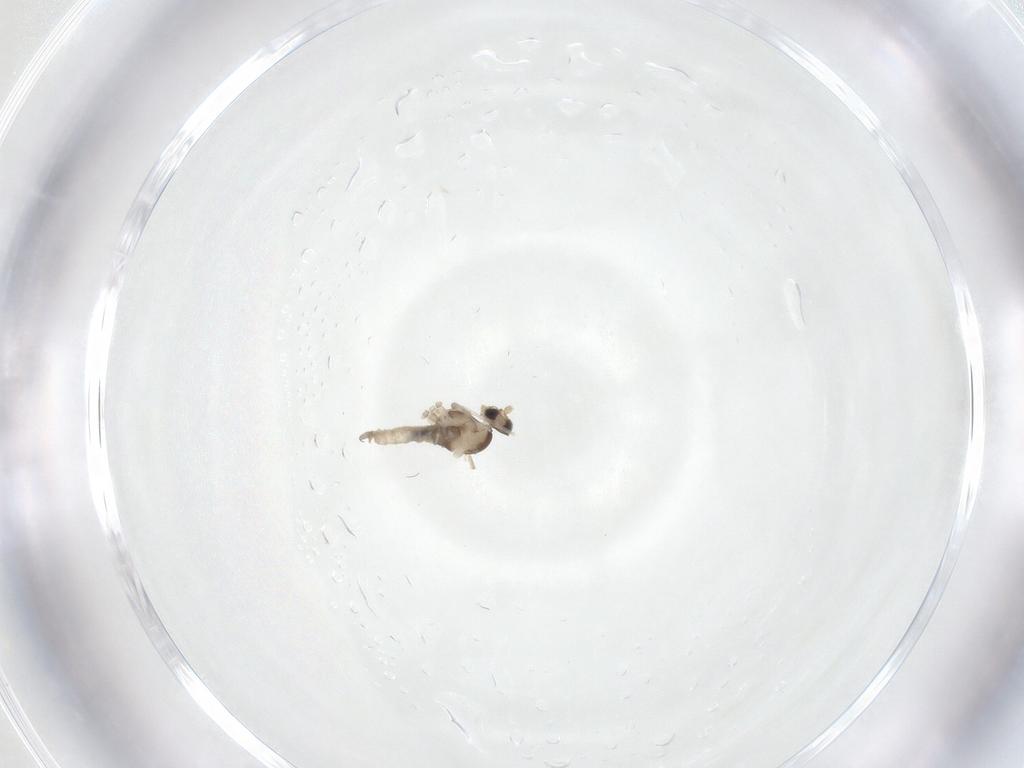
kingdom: Animalia
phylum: Arthropoda
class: Insecta
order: Diptera
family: Cecidomyiidae
